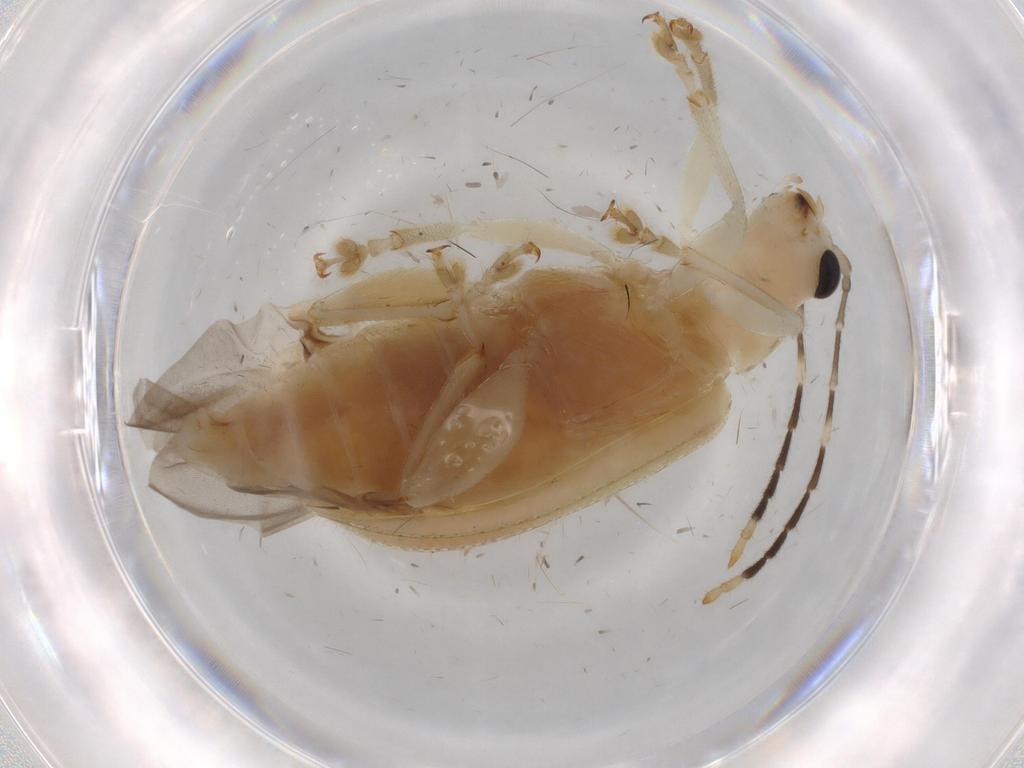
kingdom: Animalia
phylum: Arthropoda
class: Insecta
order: Coleoptera
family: Chrysomelidae
